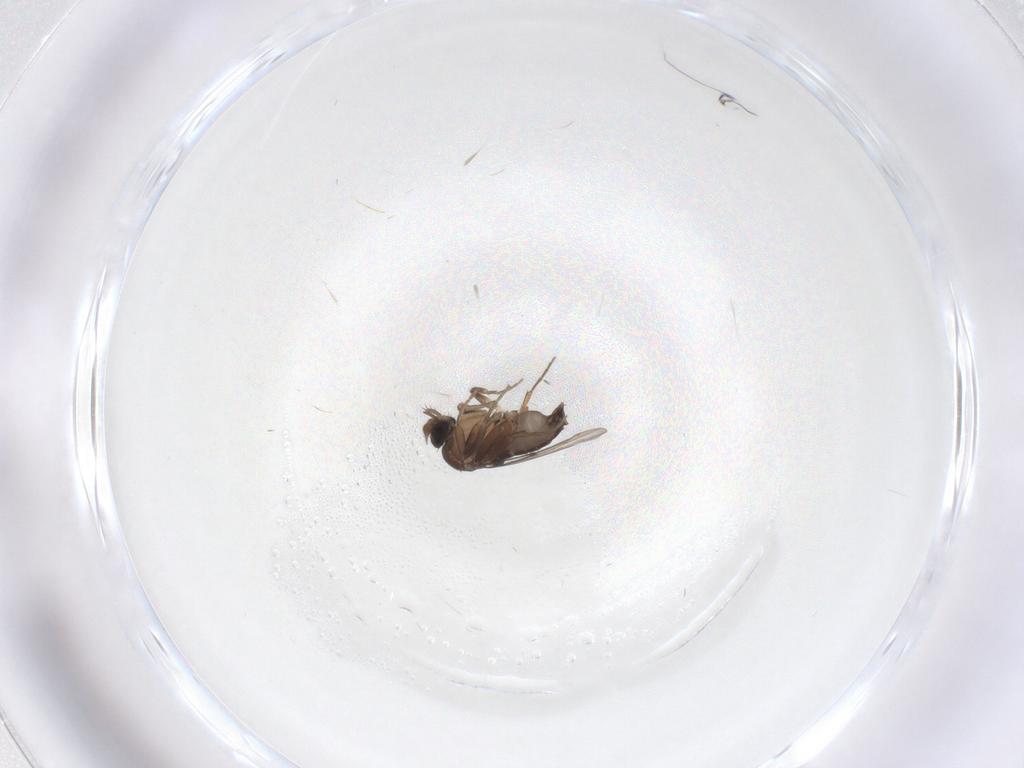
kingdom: Animalia
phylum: Arthropoda
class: Insecta
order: Diptera
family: Phoridae
